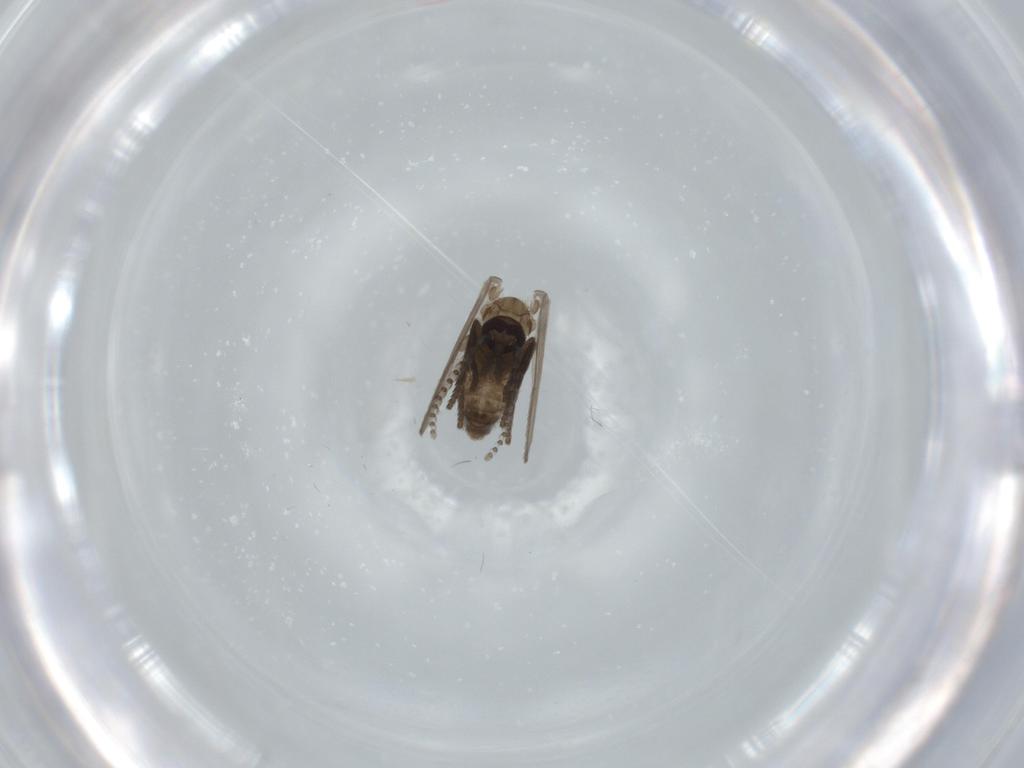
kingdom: Animalia
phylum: Arthropoda
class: Insecta
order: Diptera
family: Psychodidae
